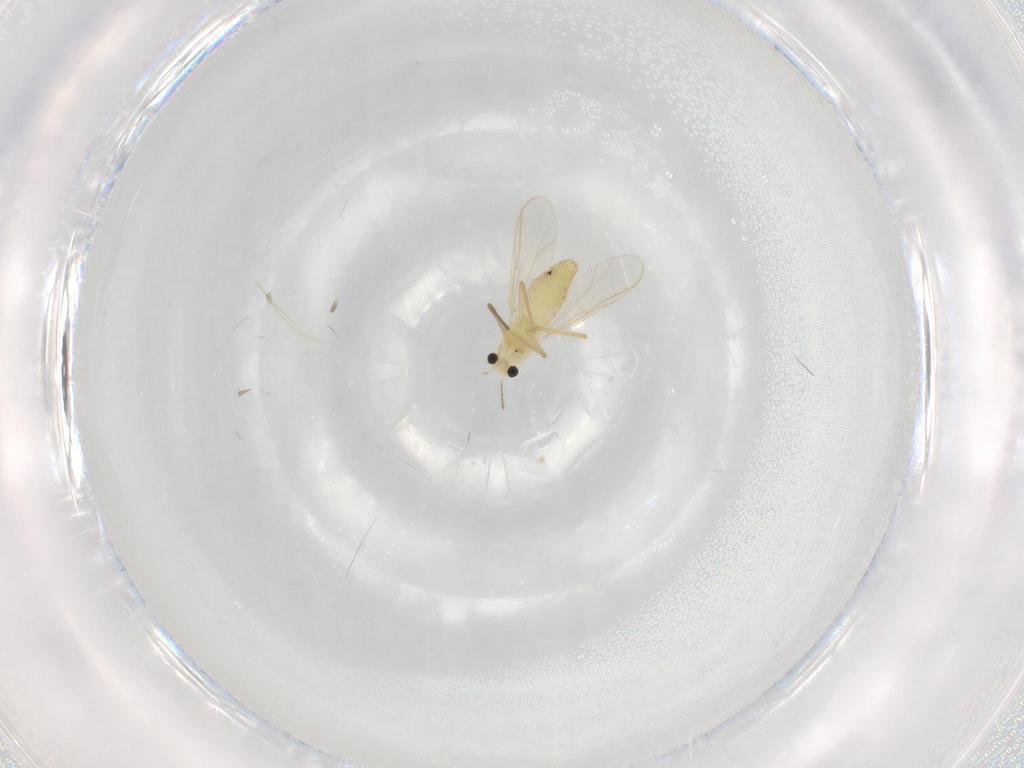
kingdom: Animalia
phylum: Arthropoda
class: Insecta
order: Diptera
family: Chironomidae
